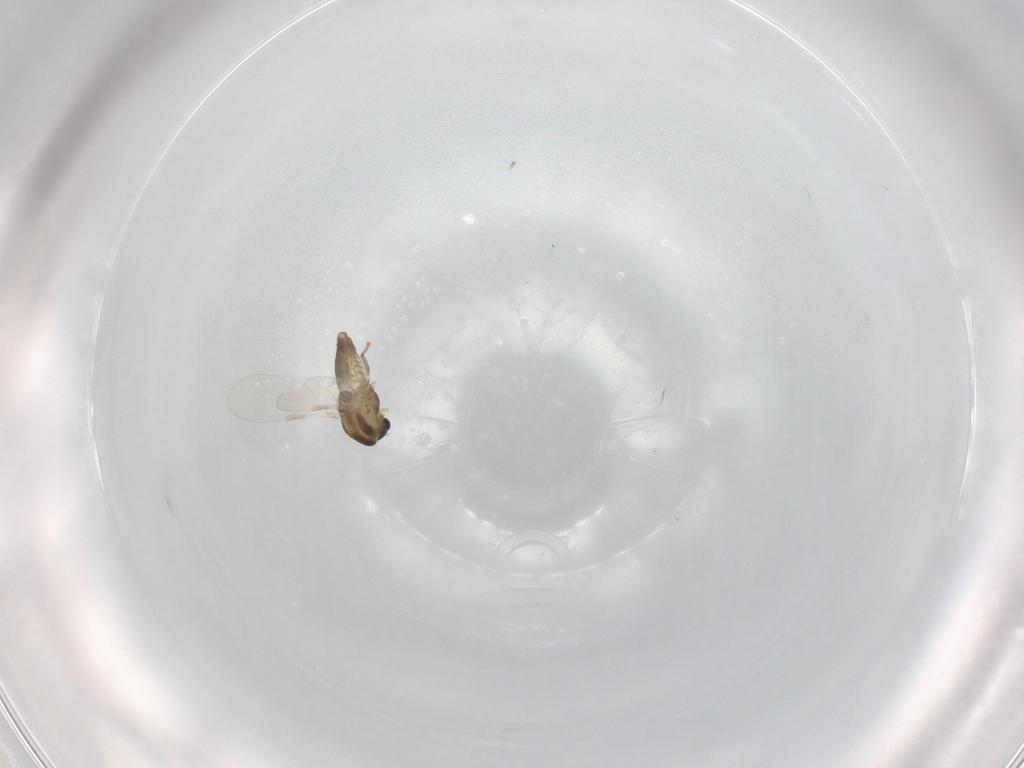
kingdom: Animalia
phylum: Arthropoda
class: Insecta
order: Diptera
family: Chironomidae
